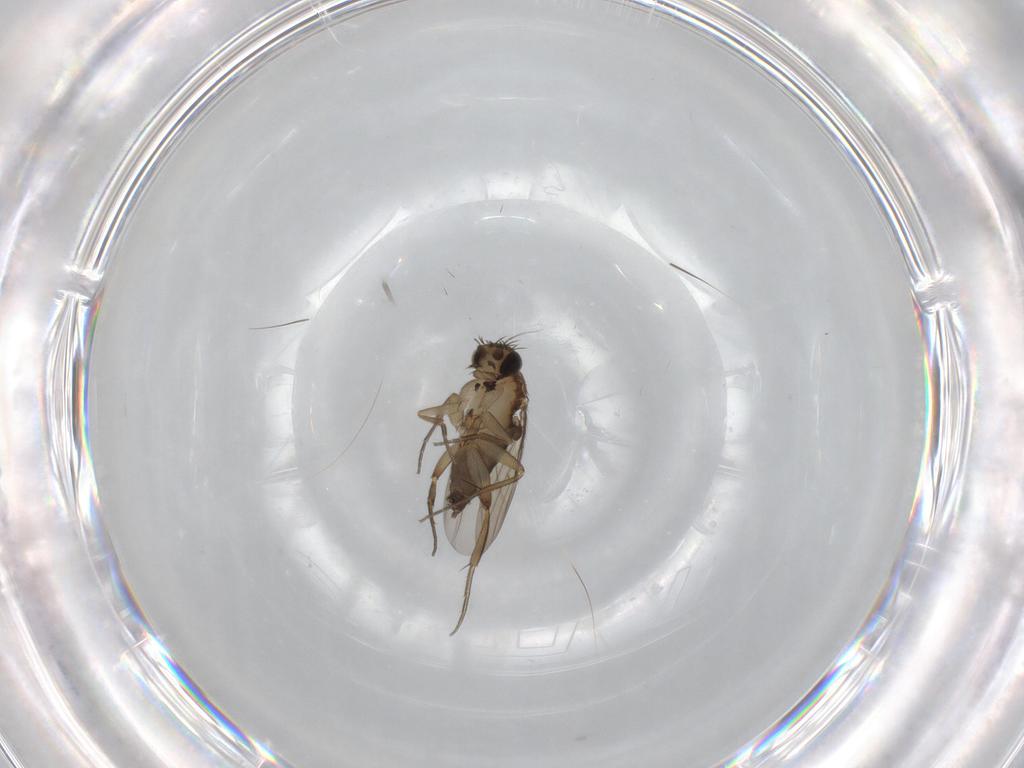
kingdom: Animalia
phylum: Arthropoda
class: Insecta
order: Diptera
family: Phoridae
